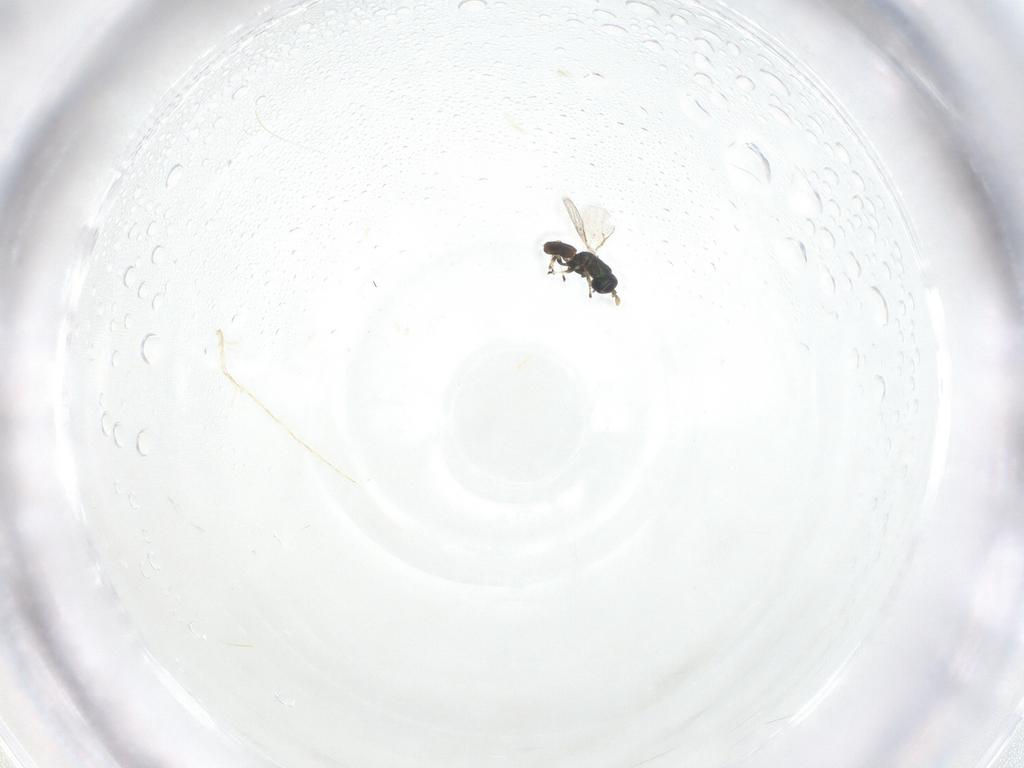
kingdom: Animalia
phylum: Arthropoda
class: Insecta
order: Hymenoptera
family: Eulophidae
